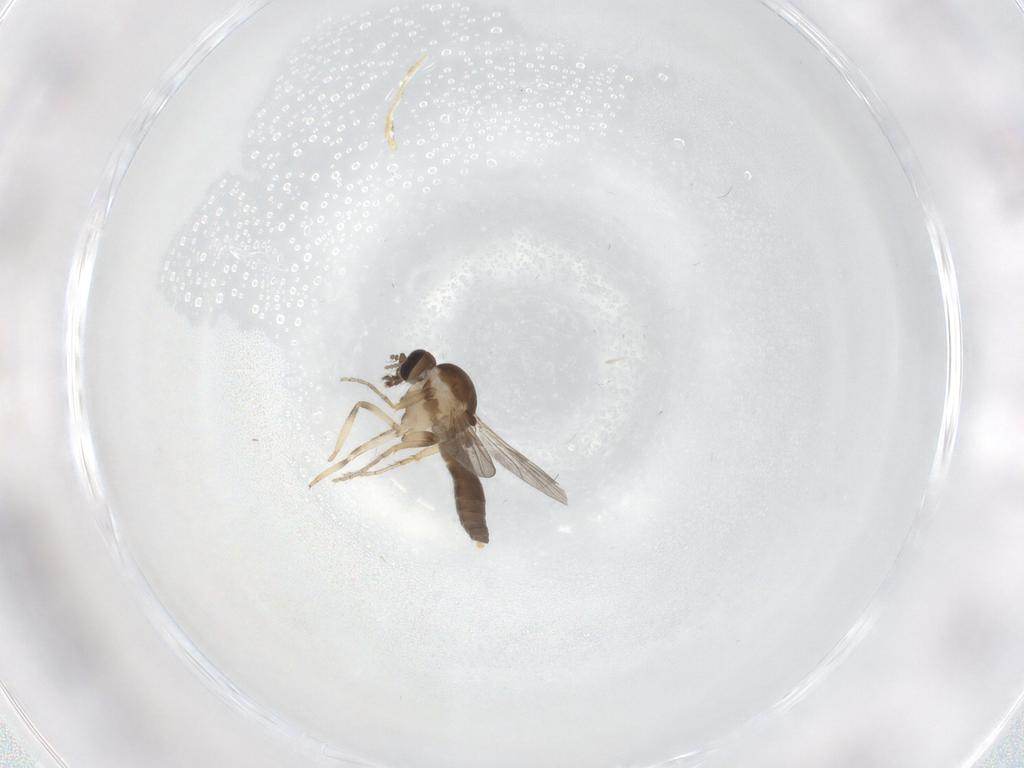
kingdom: Animalia
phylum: Arthropoda
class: Insecta
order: Diptera
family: Ceratopogonidae
